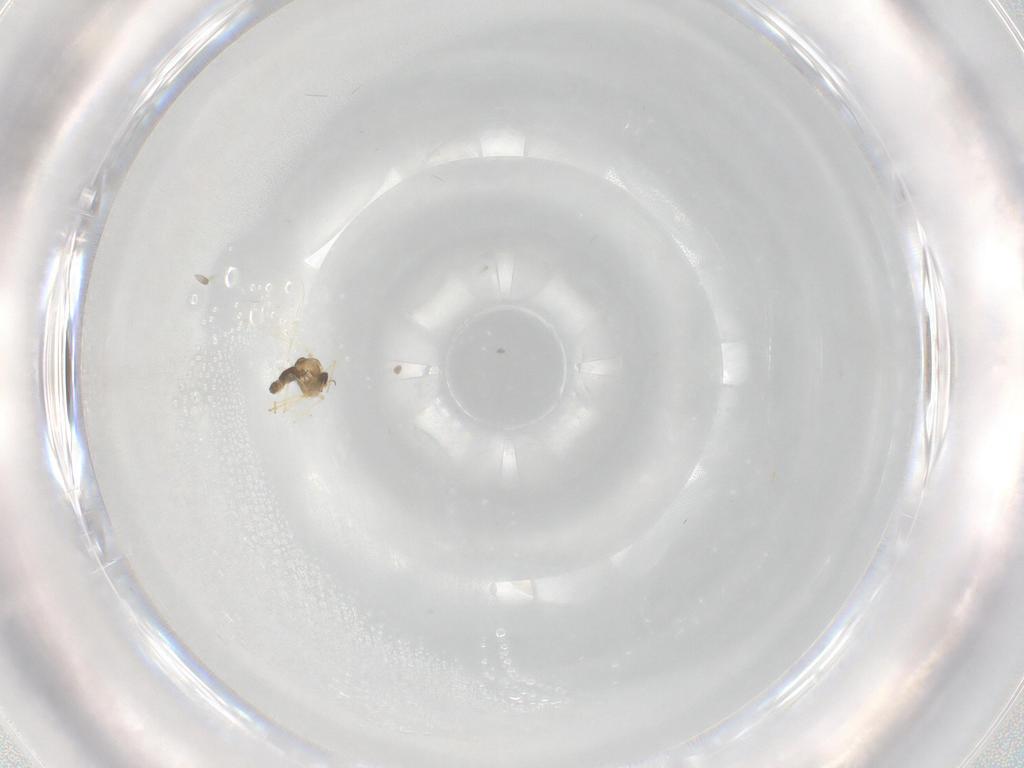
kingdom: Animalia
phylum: Arthropoda
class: Insecta
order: Diptera
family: Chironomidae
